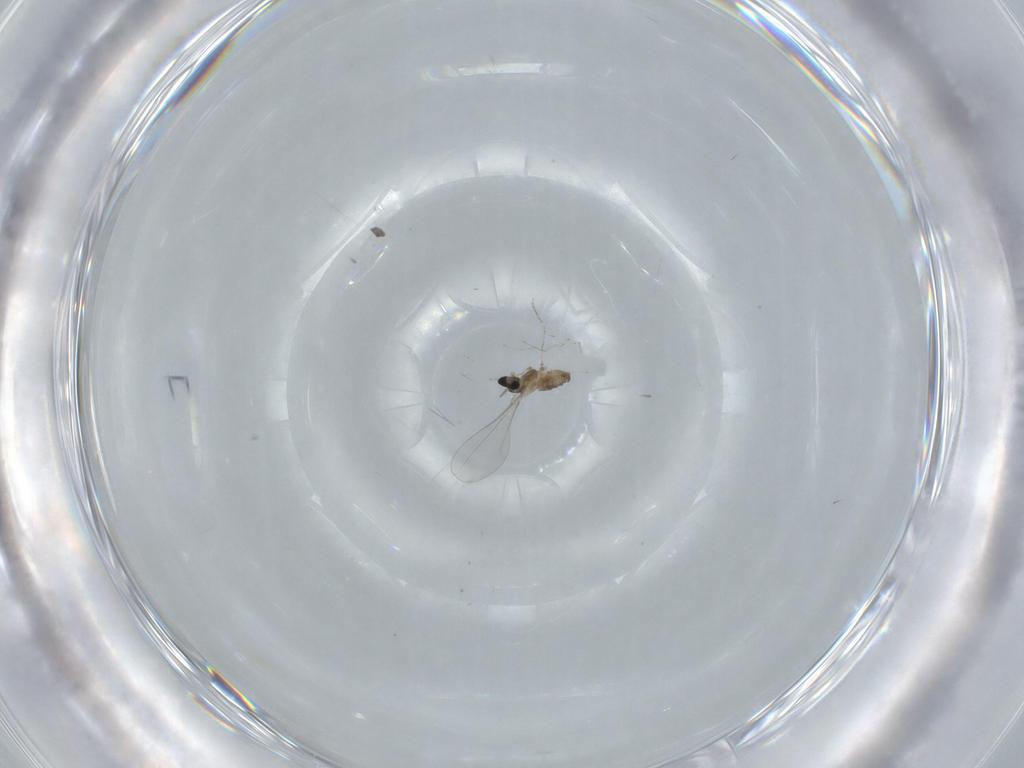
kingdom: Animalia
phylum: Arthropoda
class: Insecta
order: Diptera
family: Cecidomyiidae
